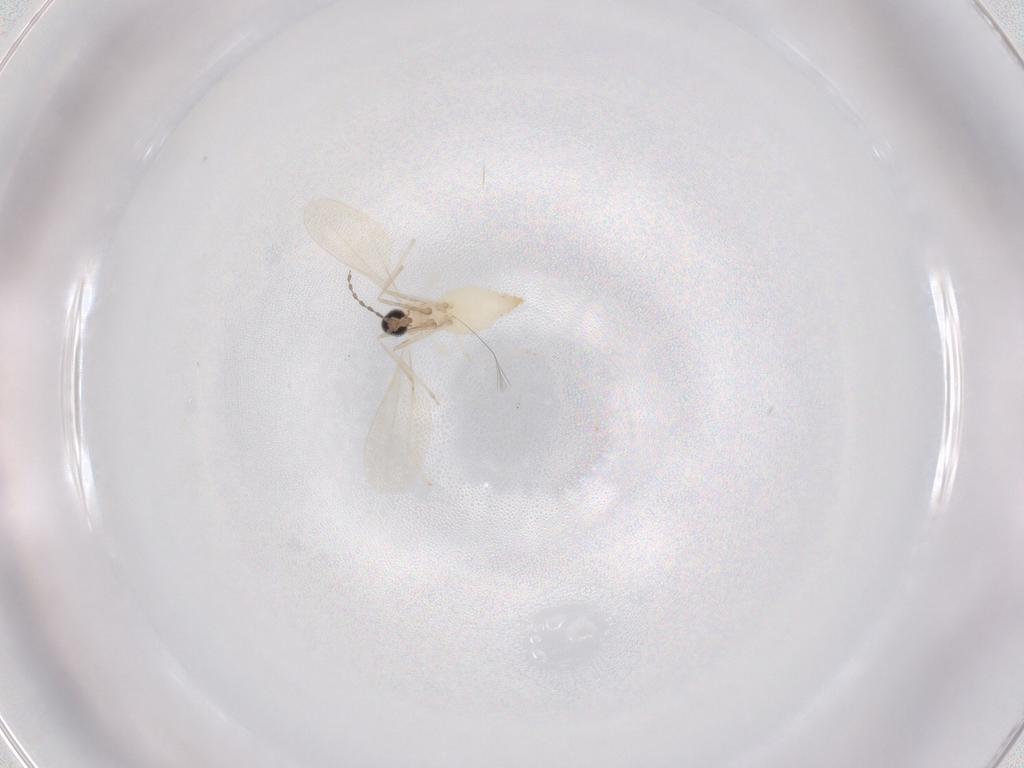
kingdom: Animalia
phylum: Arthropoda
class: Insecta
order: Diptera
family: Cecidomyiidae
